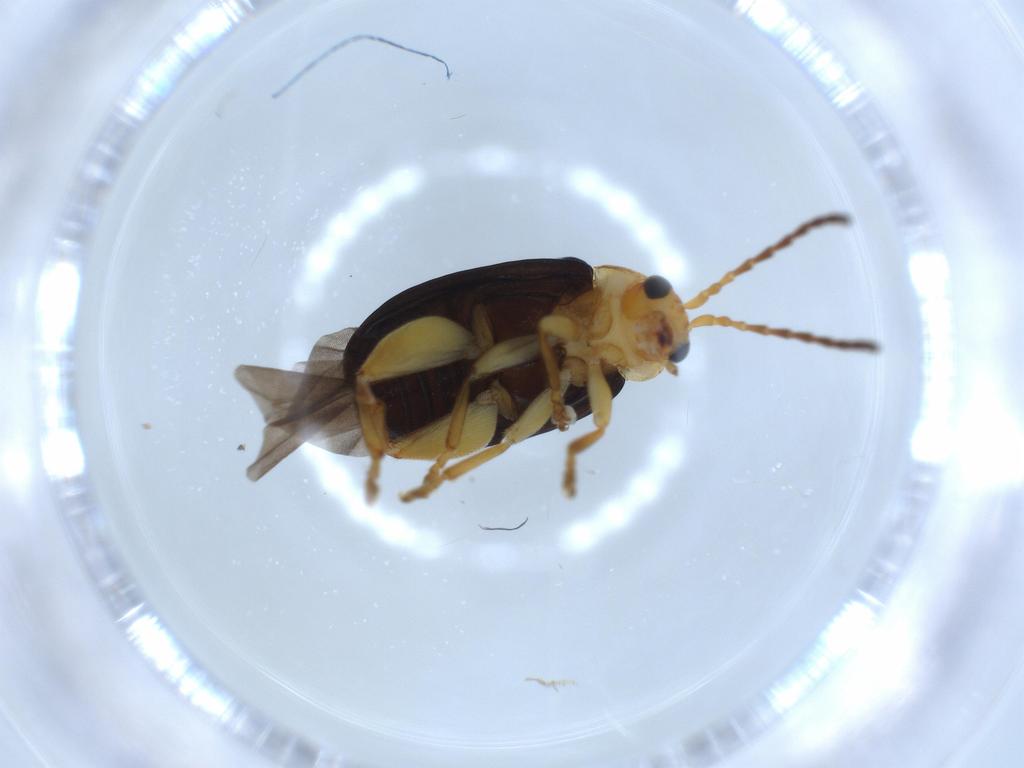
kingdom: Animalia
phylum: Arthropoda
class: Insecta
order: Coleoptera
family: Chrysomelidae
